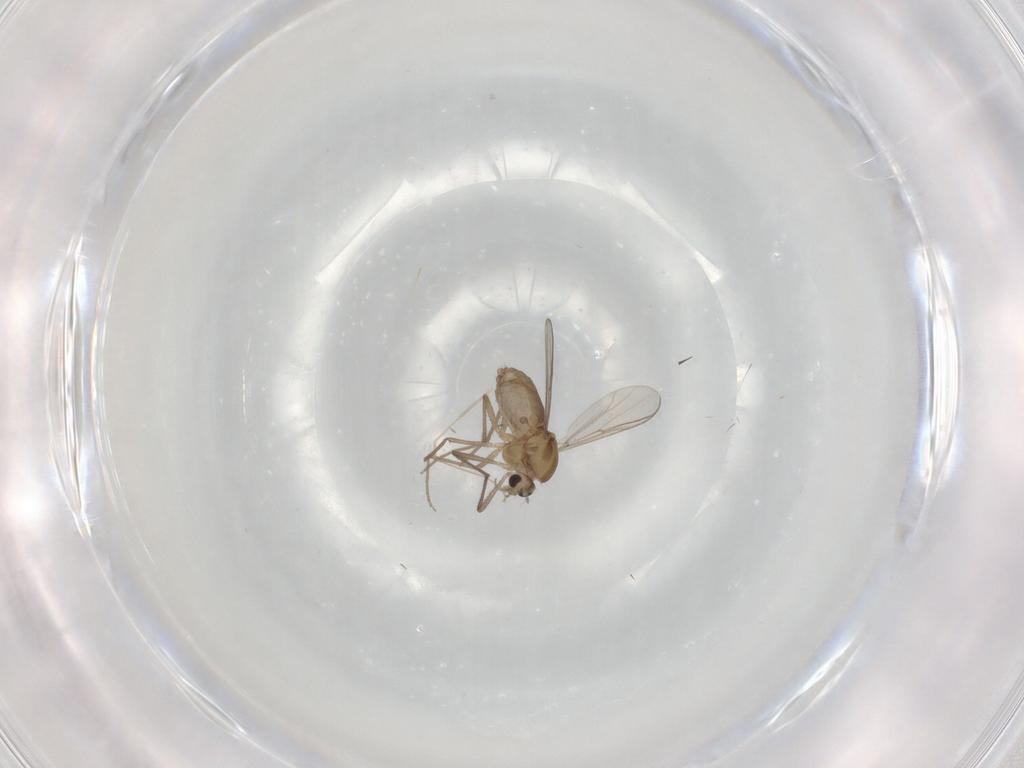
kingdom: Animalia
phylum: Arthropoda
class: Insecta
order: Diptera
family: Chironomidae
